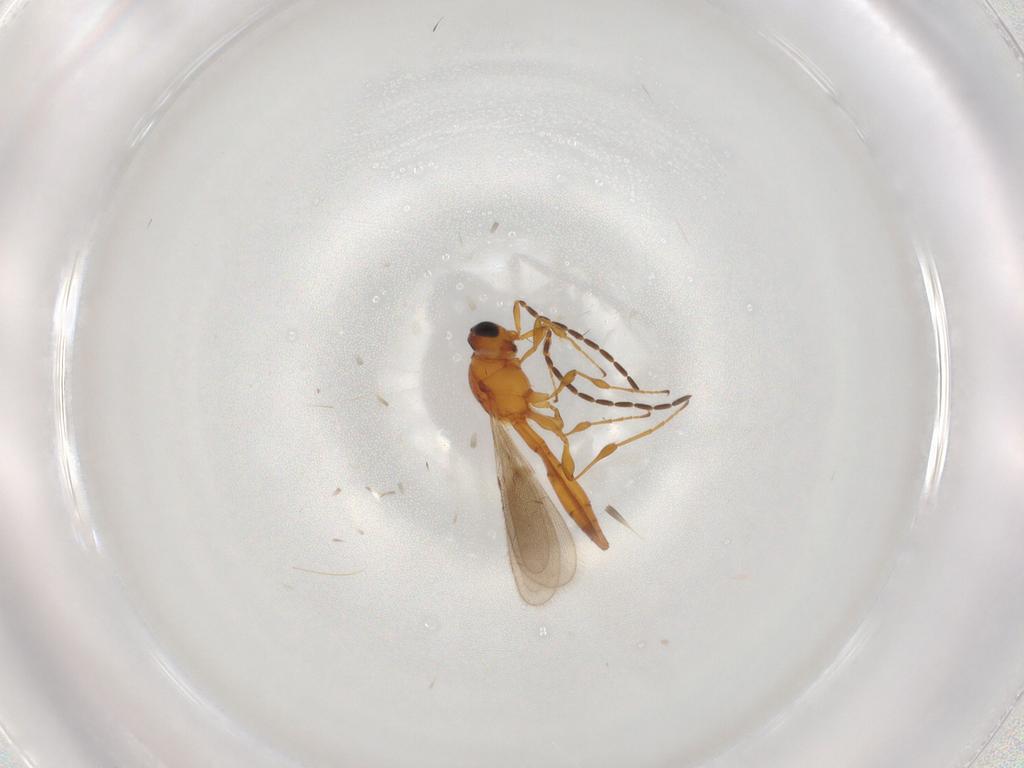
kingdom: Animalia
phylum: Arthropoda
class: Insecta
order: Hymenoptera
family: Scelionidae
